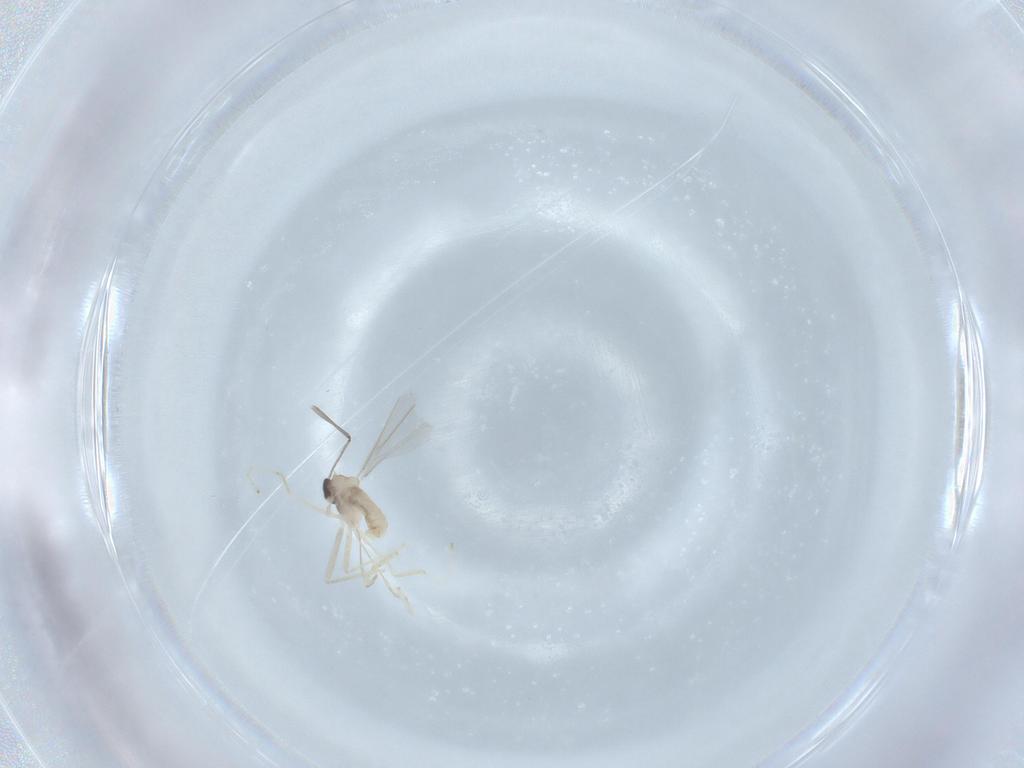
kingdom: Animalia
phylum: Arthropoda
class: Insecta
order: Diptera
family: Cecidomyiidae
